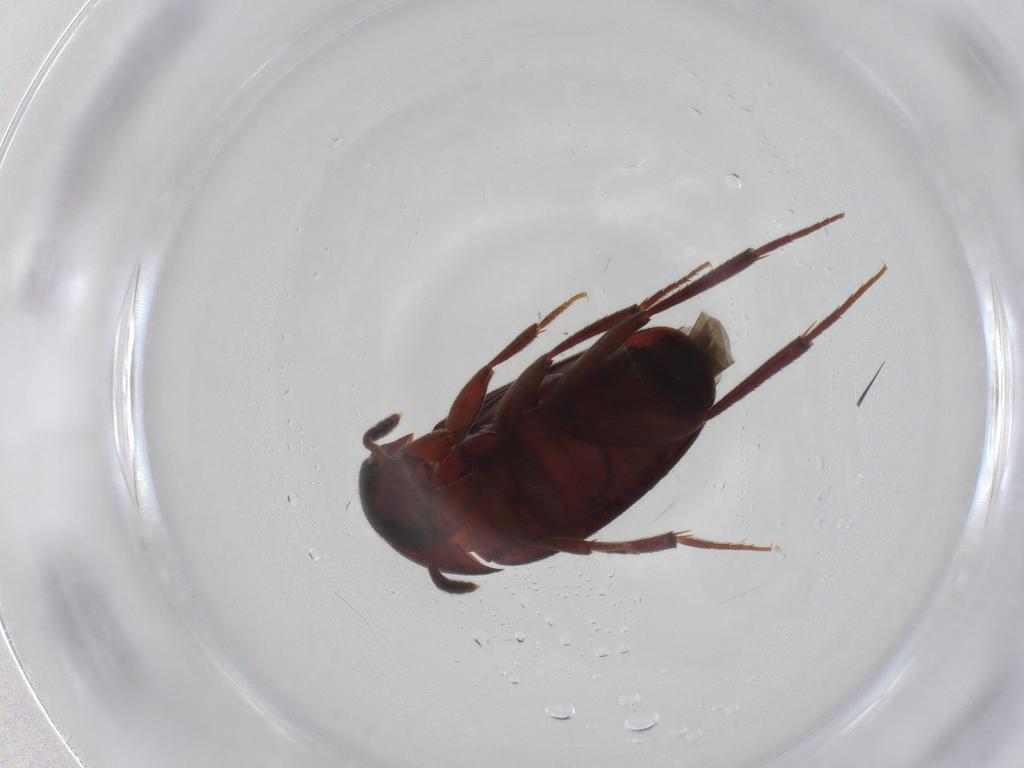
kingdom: Animalia
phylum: Arthropoda
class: Insecta
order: Coleoptera
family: Leiodidae
